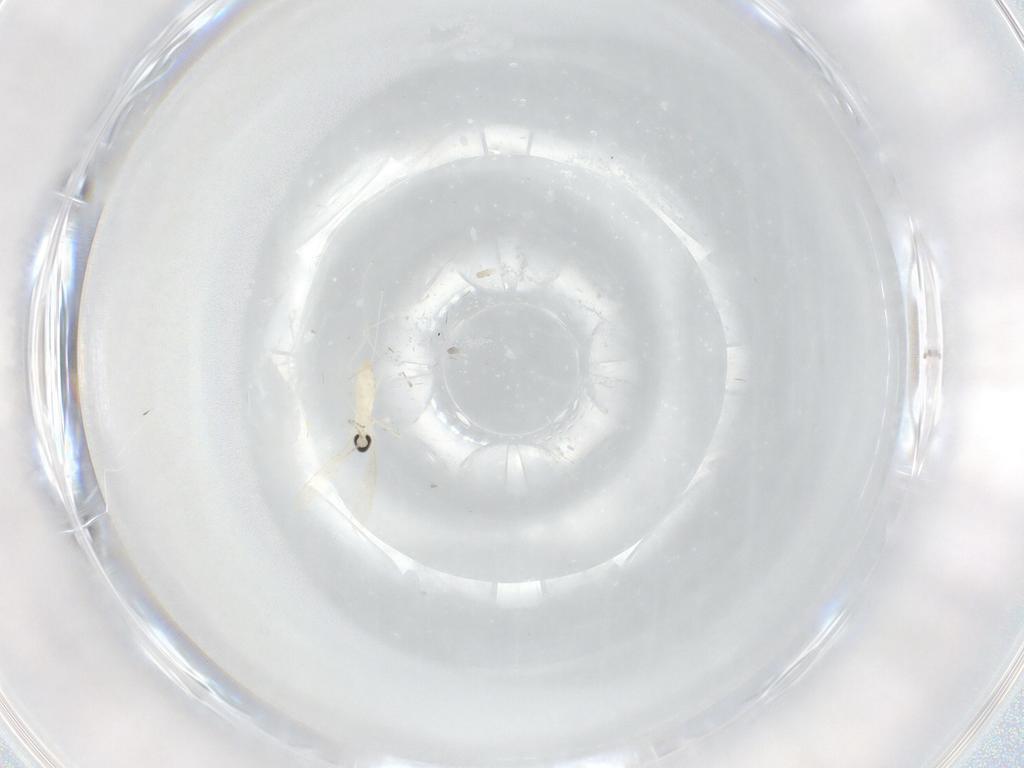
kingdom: Animalia
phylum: Arthropoda
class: Insecta
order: Diptera
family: Cecidomyiidae
